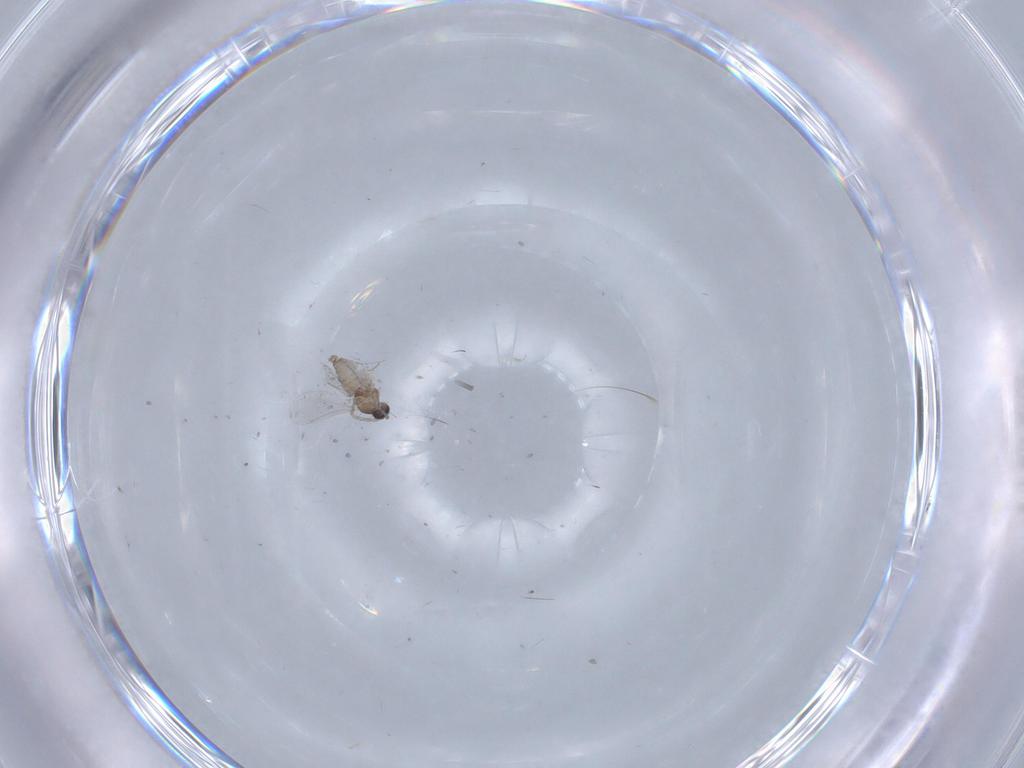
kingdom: Animalia
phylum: Arthropoda
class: Insecta
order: Diptera
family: Cecidomyiidae
